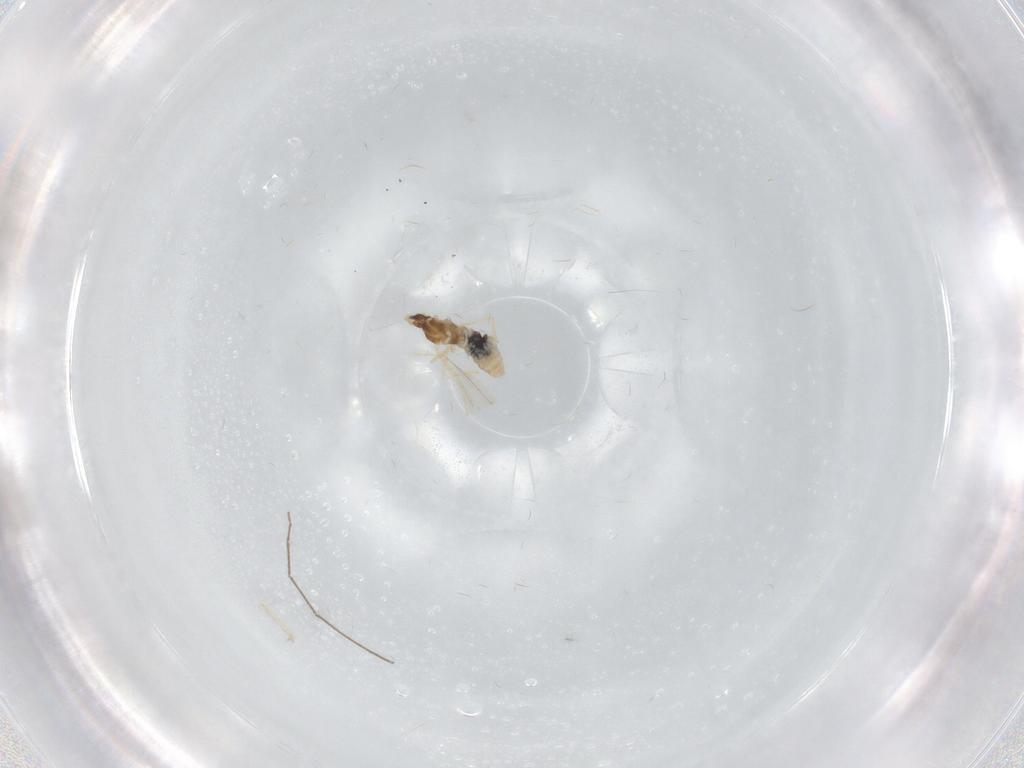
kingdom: Animalia
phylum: Arthropoda
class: Insecta
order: Diptera
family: Cecidomyiidae
